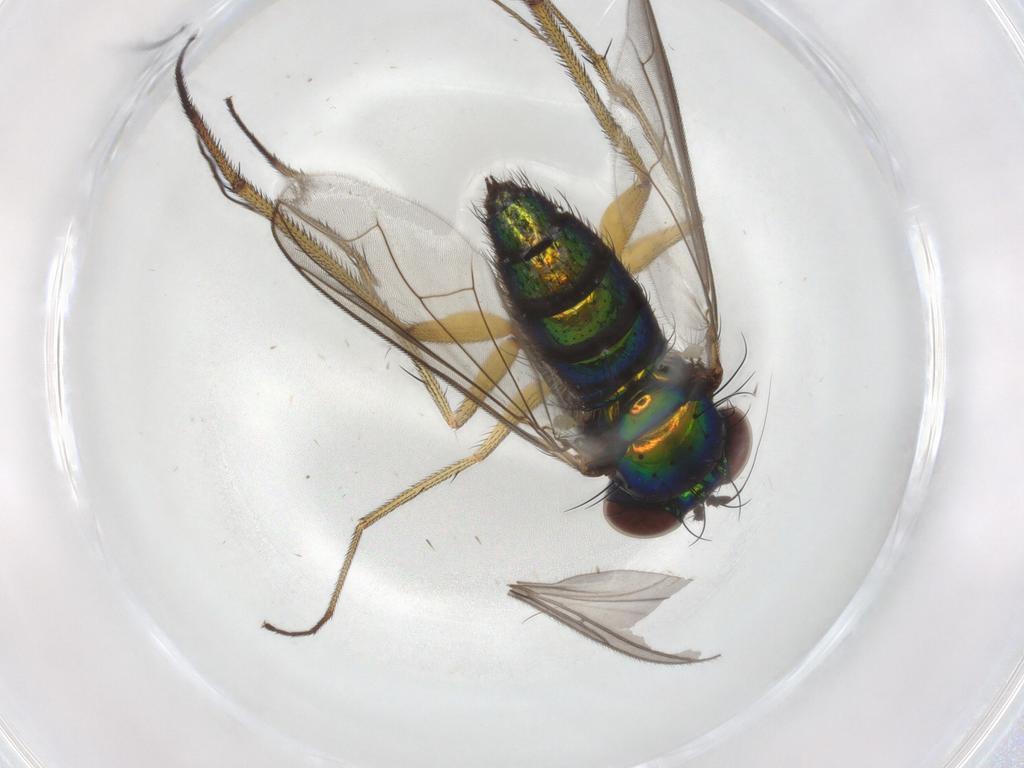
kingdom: Animalia
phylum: Arthropoda
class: Insecta
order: Diptera
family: Dolichopodidae
